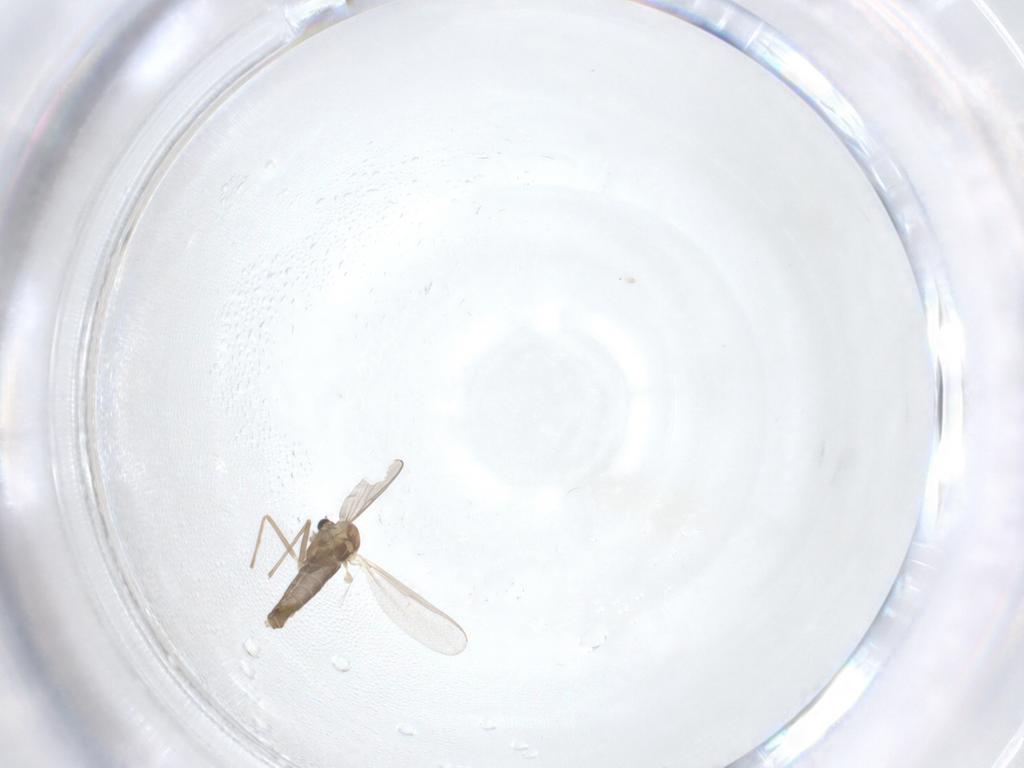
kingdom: Animalia
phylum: Arthropoda
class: Insecta
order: Diptera
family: Chironomidae
